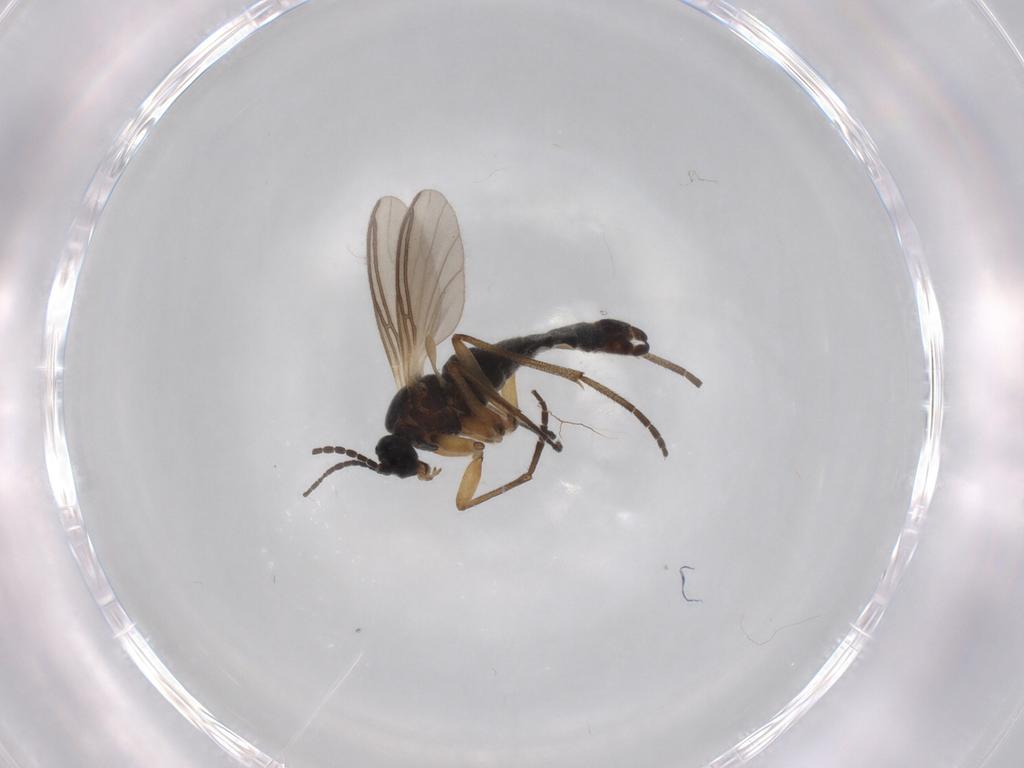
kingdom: Animalia
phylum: Arthropoda
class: Insecta
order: Diptera
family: Sciaridae
